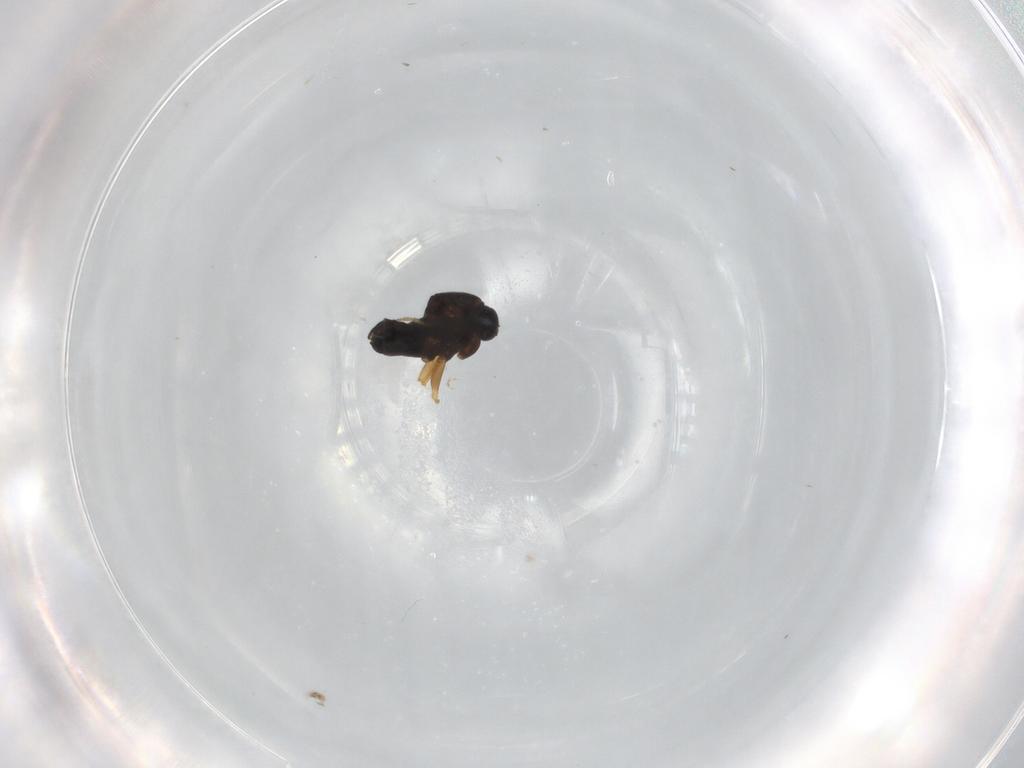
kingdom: Animalia
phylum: Arthropoda
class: Insecta
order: Diptera
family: Scatopsidae
